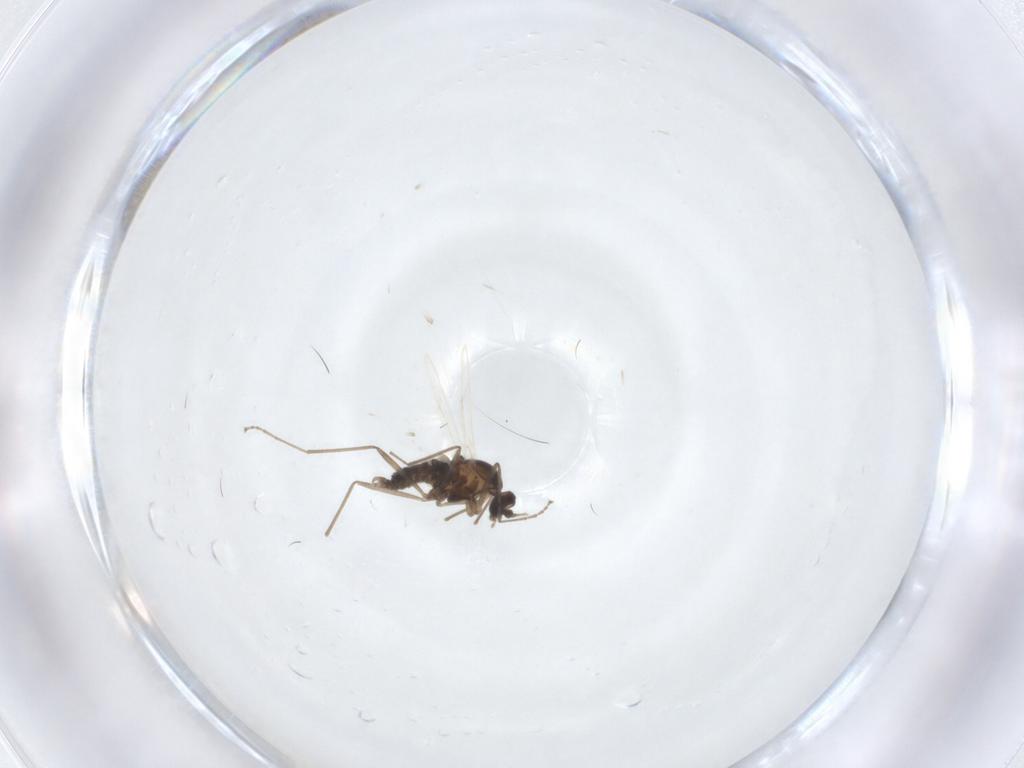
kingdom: Animalia
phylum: Arthropoda
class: Insecta
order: Diptera
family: Cecidomyiidae
